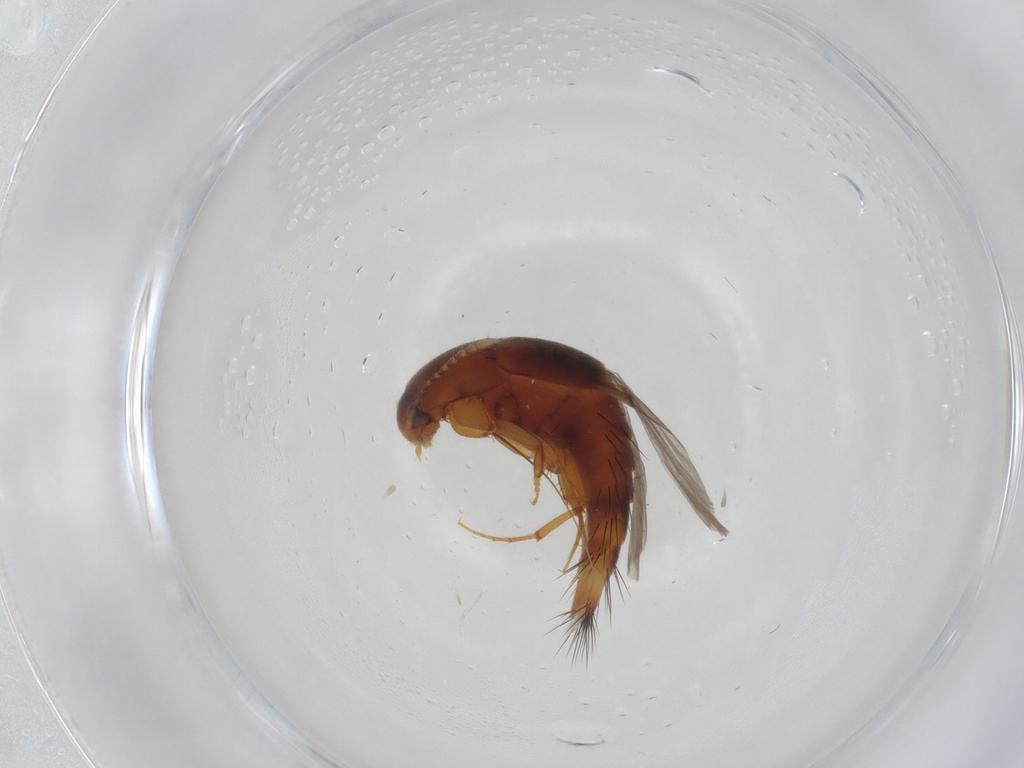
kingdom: Animalia
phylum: Arthropoda
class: Insecta
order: Coleoptera
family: Staphylinidae
